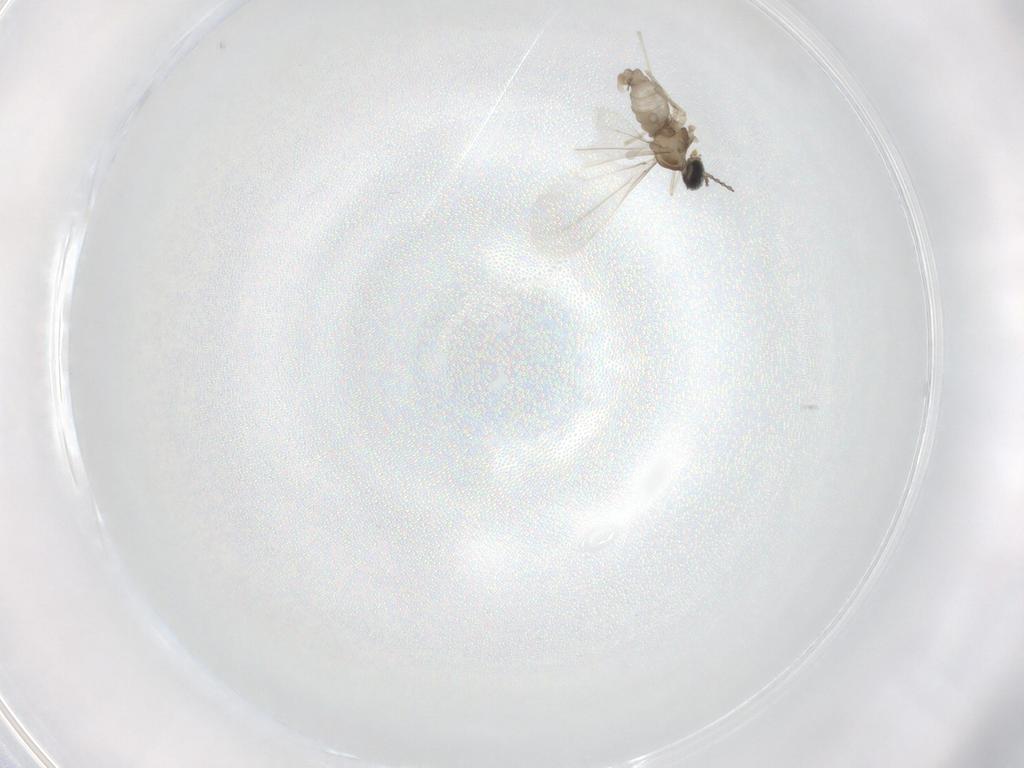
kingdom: Animalia
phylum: Arthropoda
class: Insecta
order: Diptera
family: Cecidomyiidae
